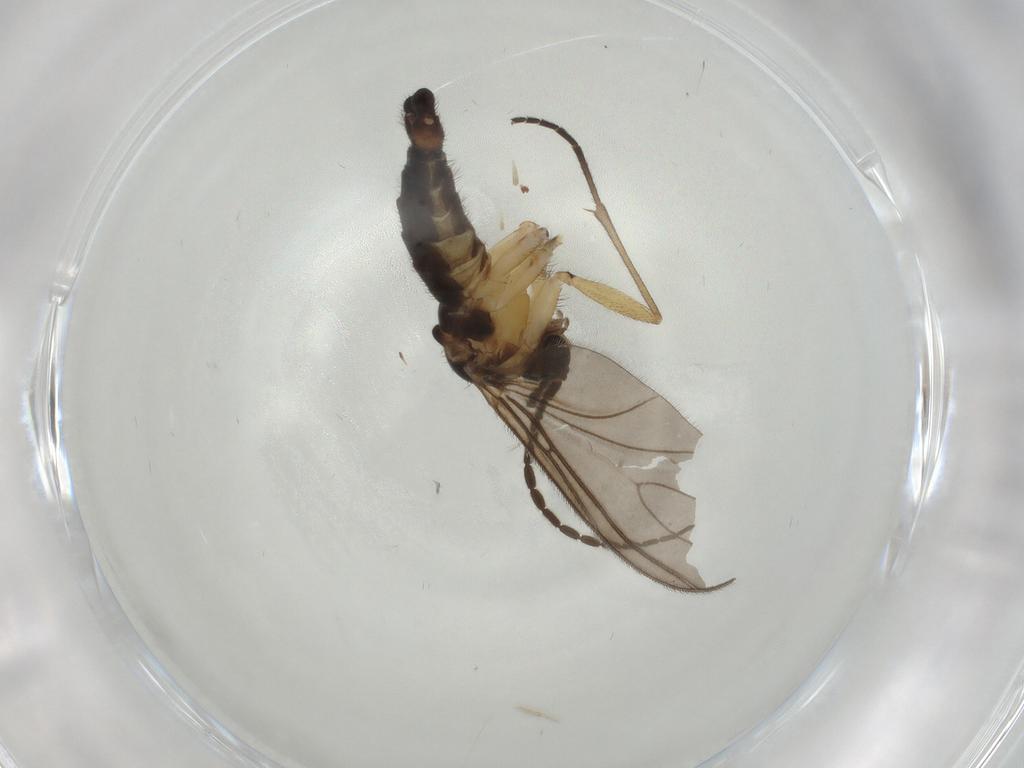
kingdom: Animalia
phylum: Arthropoda
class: Insecta
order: Diptera
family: Sciaridae
